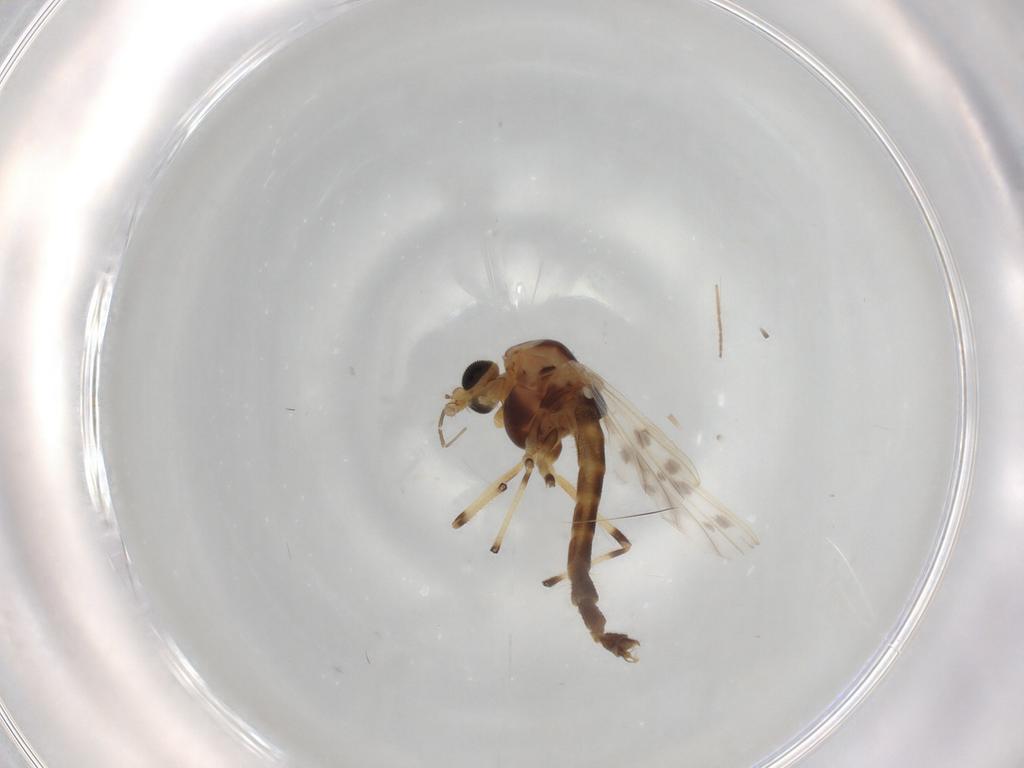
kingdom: Animalia
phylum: Arthropoda
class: Insecta
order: Diptera
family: Chironomidae
